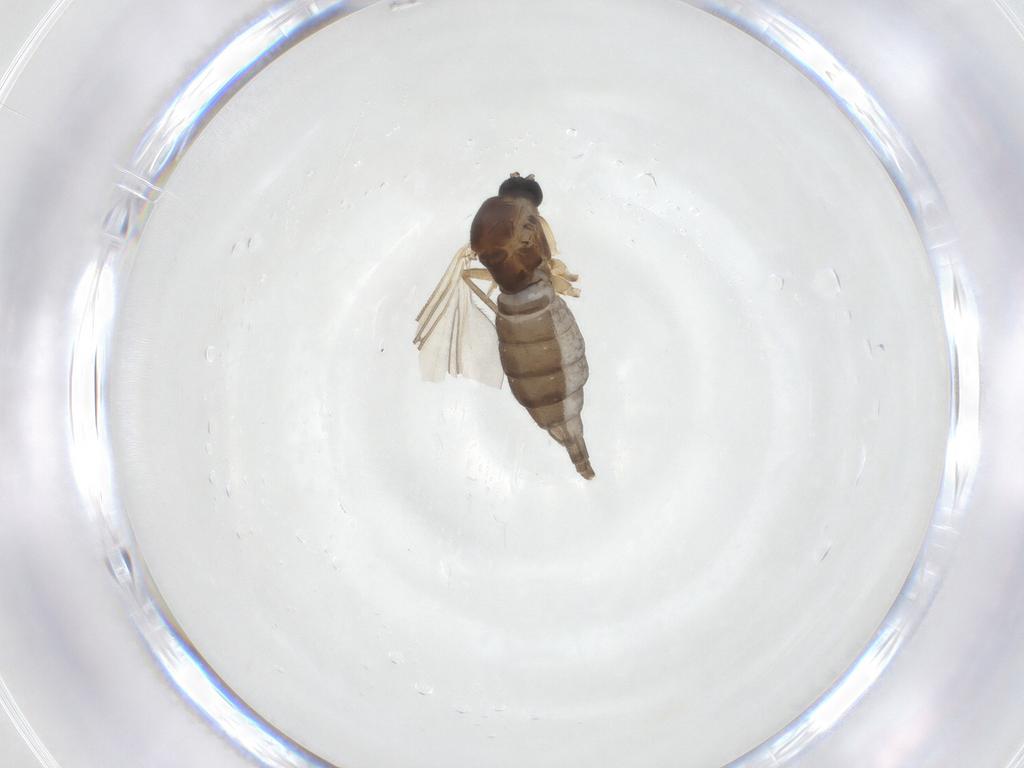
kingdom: Animalia
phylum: Arthropoda
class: Insecta
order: Diptera
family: Sciaridae
